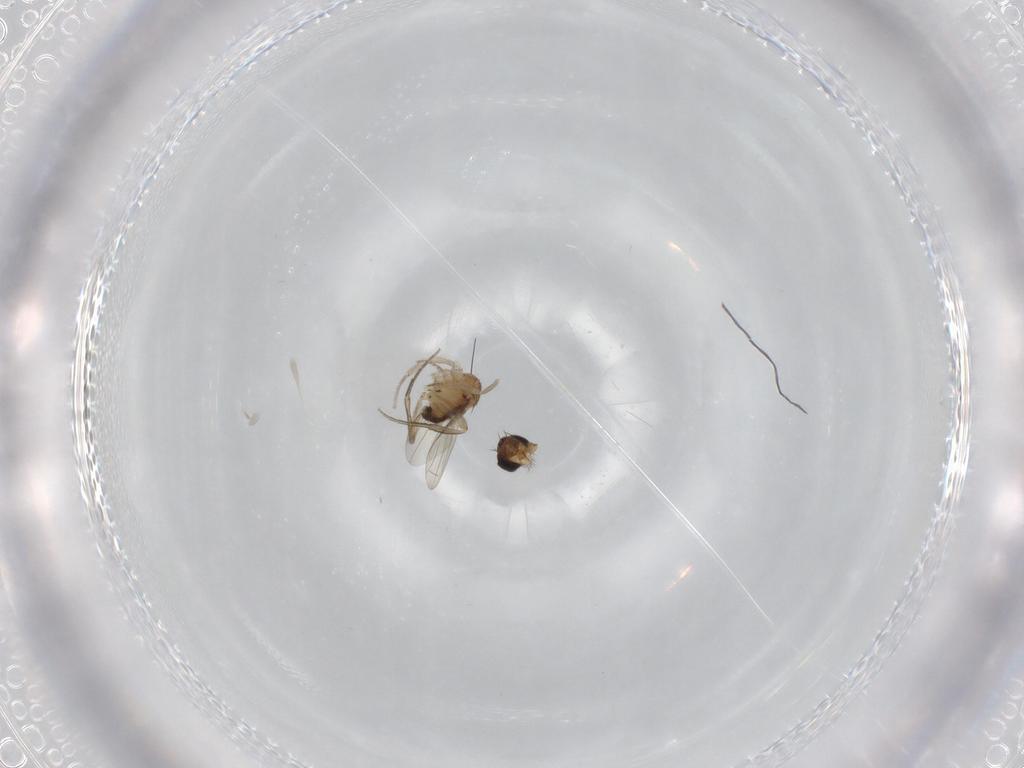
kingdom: Animalia
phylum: Arthropoda
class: Insecta
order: Diptera
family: Phoridae
